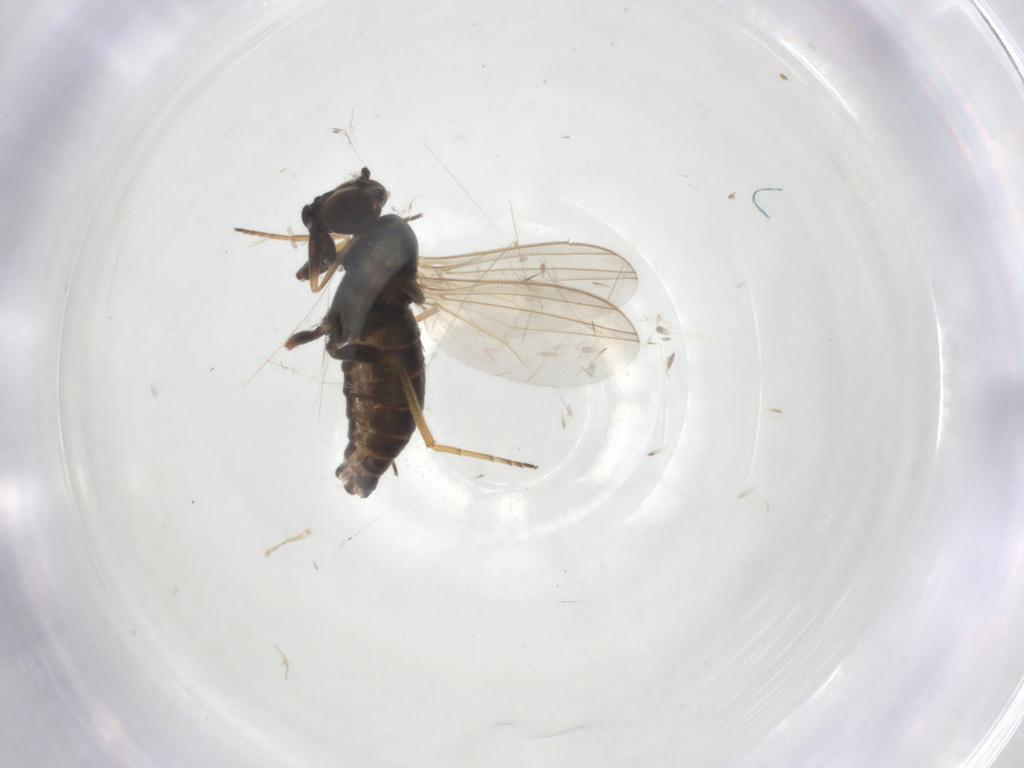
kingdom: Animalia
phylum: Arthropoda
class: Insecta
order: Diptera
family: Dolichopodidae
